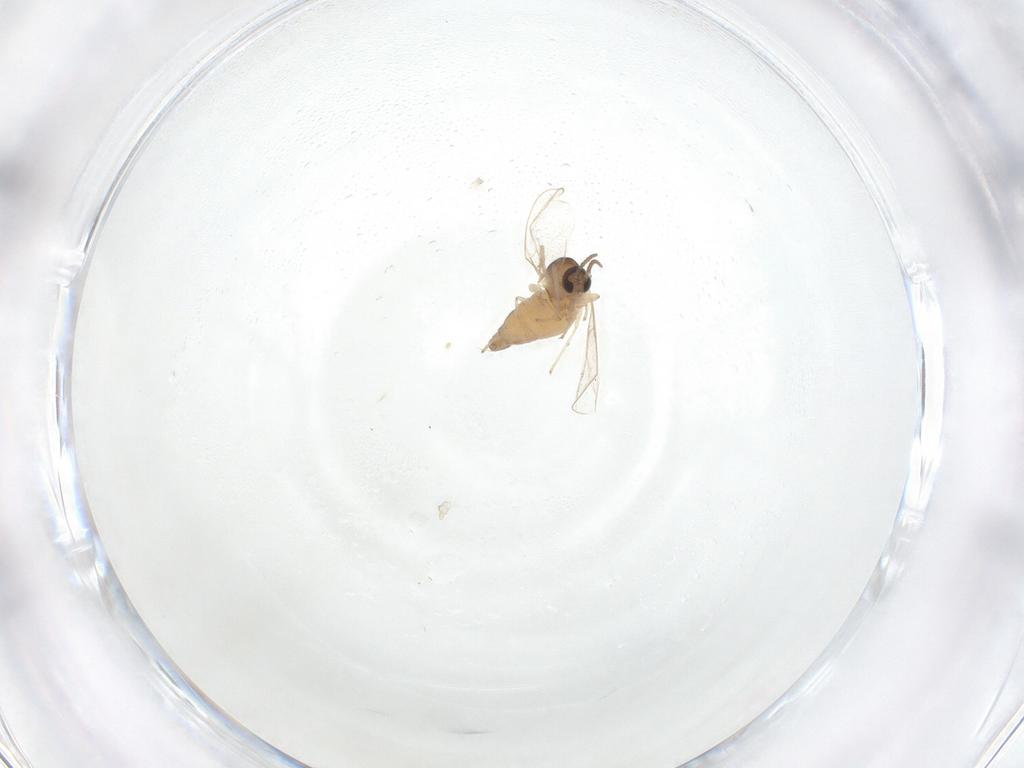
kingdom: Animalia
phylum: Arthropoda
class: Insecta
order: Diptera
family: Cecidomyiidae
